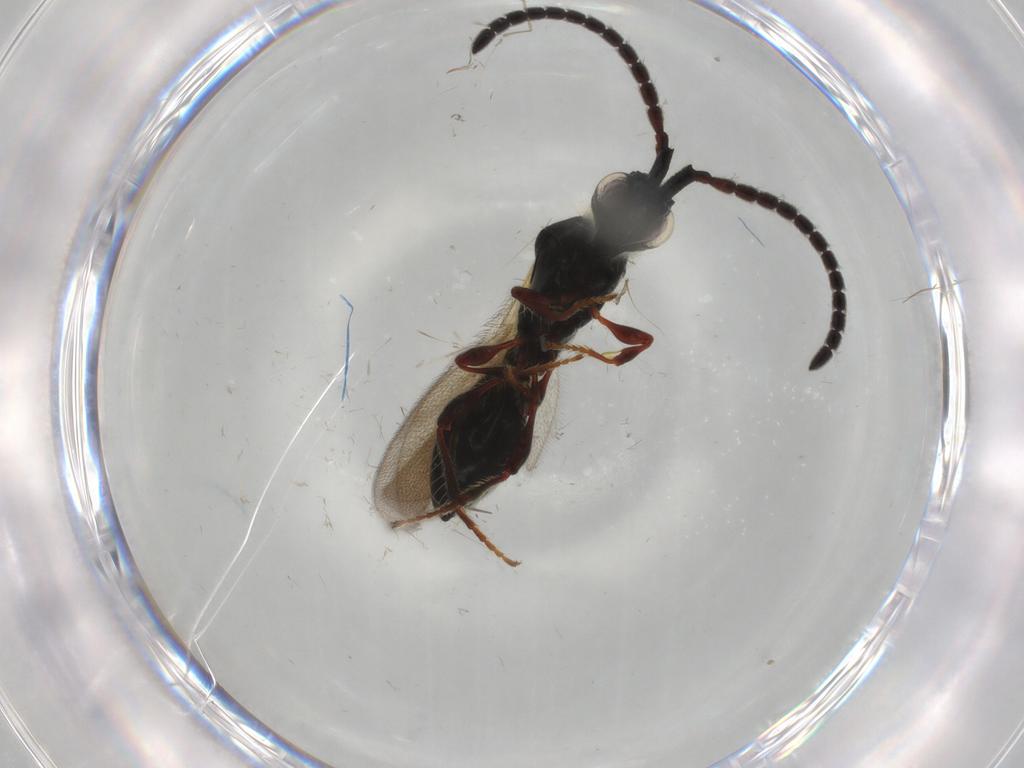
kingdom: Animalia
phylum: Arthropoda
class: Insecta
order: Hymenoptera
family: Diapriidae
